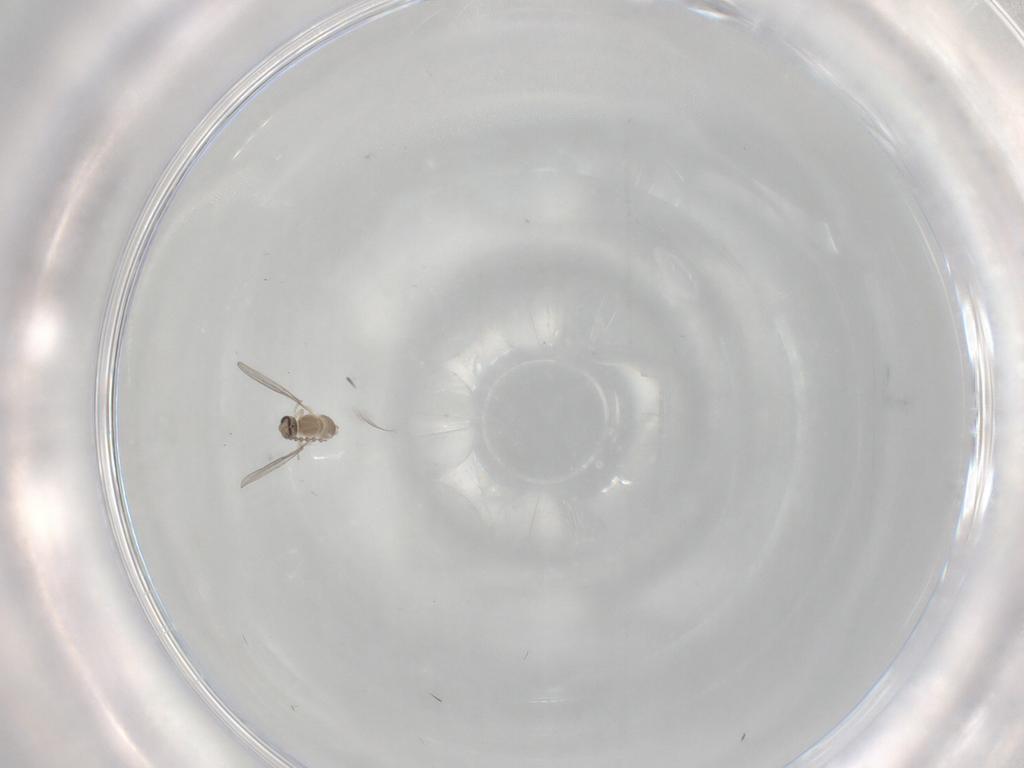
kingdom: Animalia
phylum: Arthropoda
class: Insecta
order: Diptera
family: Cecidomyiidae
